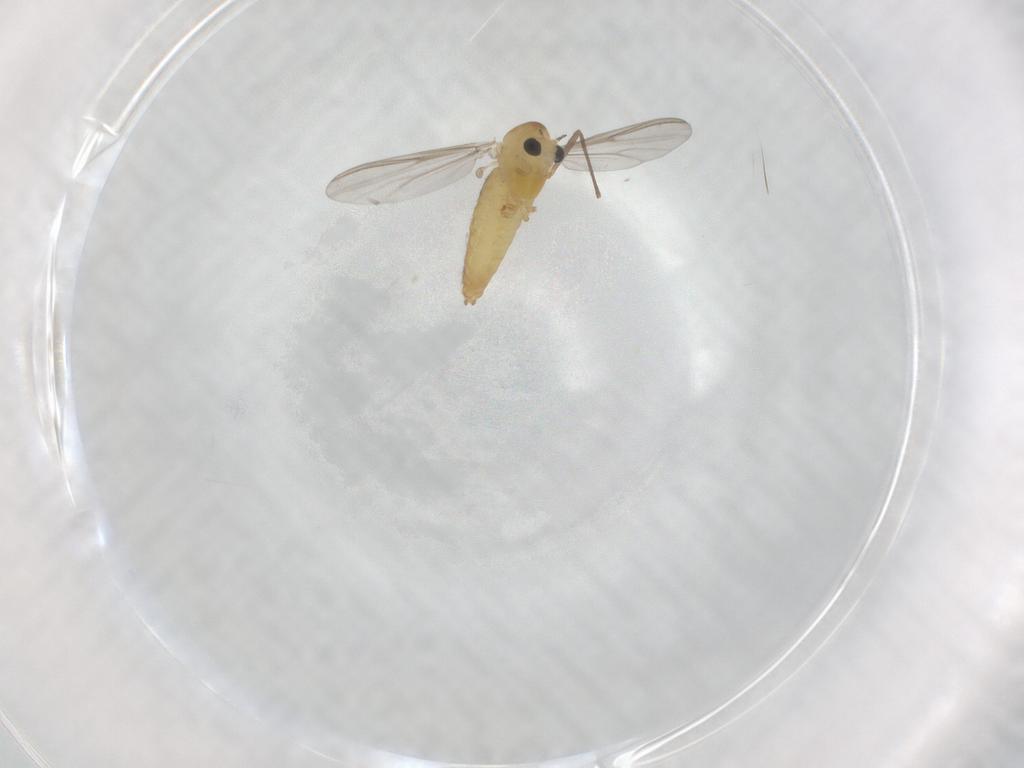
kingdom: Animalia
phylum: Arthropoda
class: Insecta
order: Diptera
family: Chironomidae
